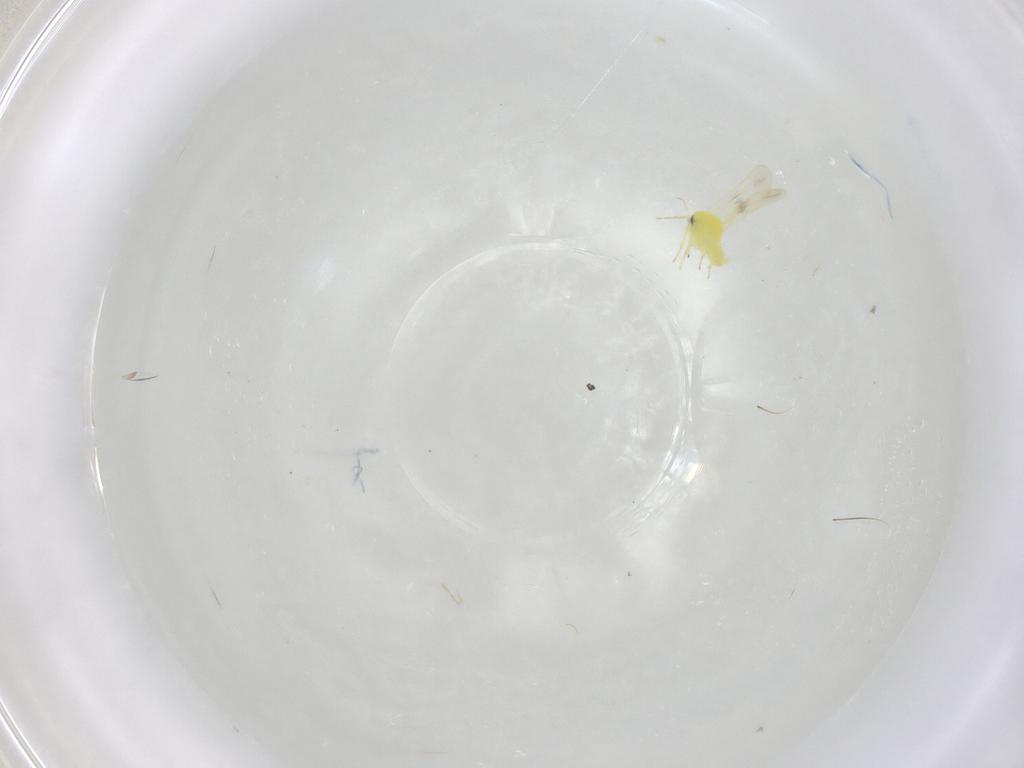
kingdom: Animalia
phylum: Arthropoda
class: Insecta
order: Diptera
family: Chironomidae
